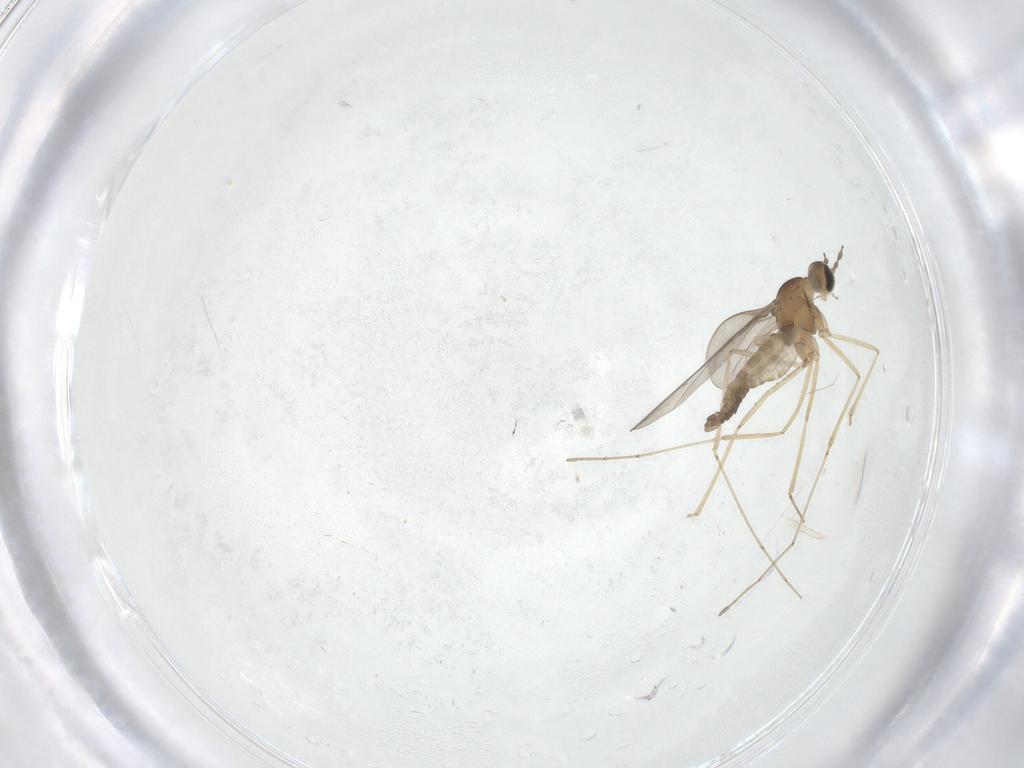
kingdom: Animalia
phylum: Arthropoda
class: Insecta
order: Diptera
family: Cecidomyiidae
